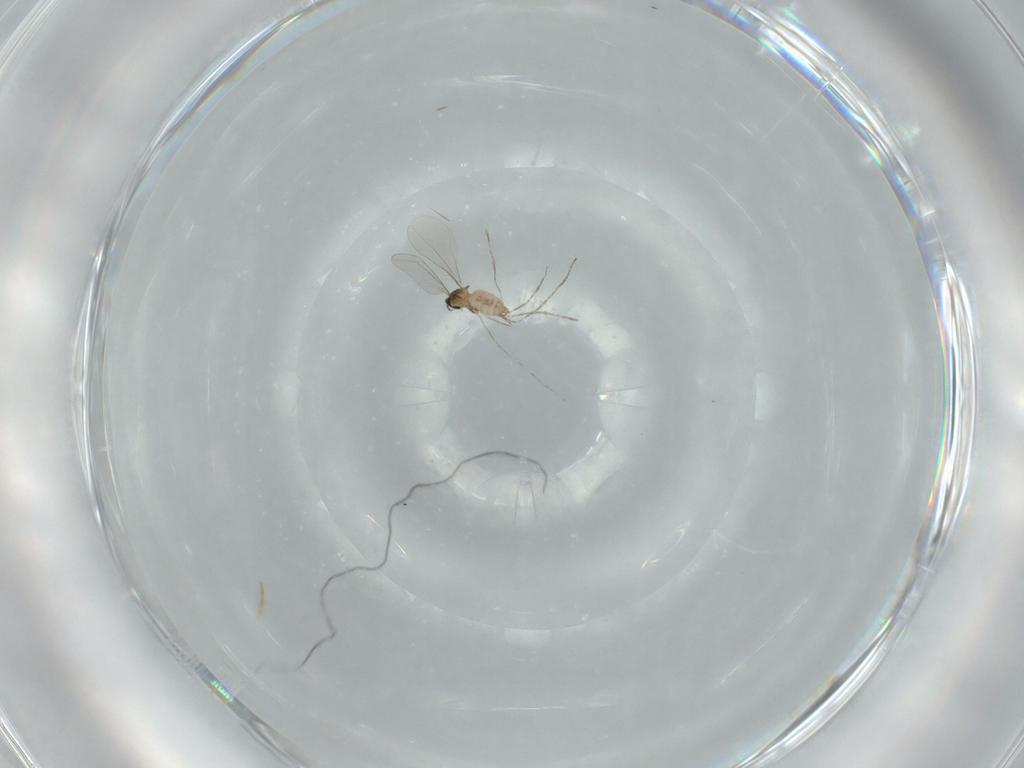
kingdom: Animalia
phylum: Arthropoda
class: Insecta
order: Diptera
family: Cecidomyiidae
